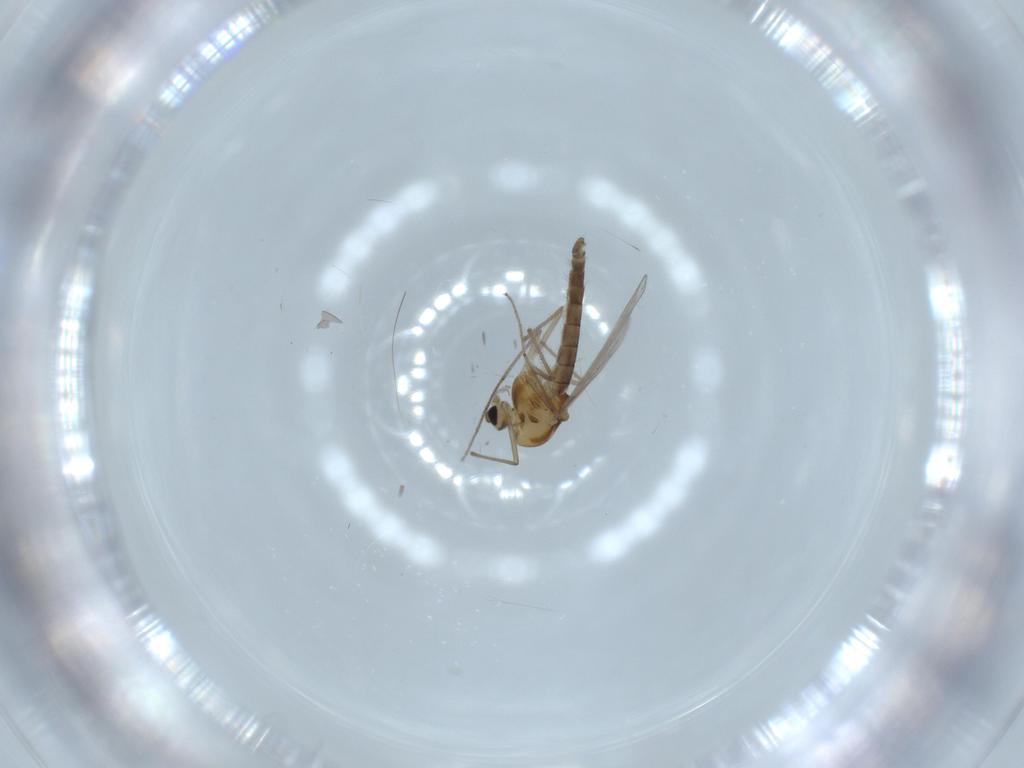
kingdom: Animalia
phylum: Arthropoda
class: Insecta
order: Diptera
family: Chironomidae
